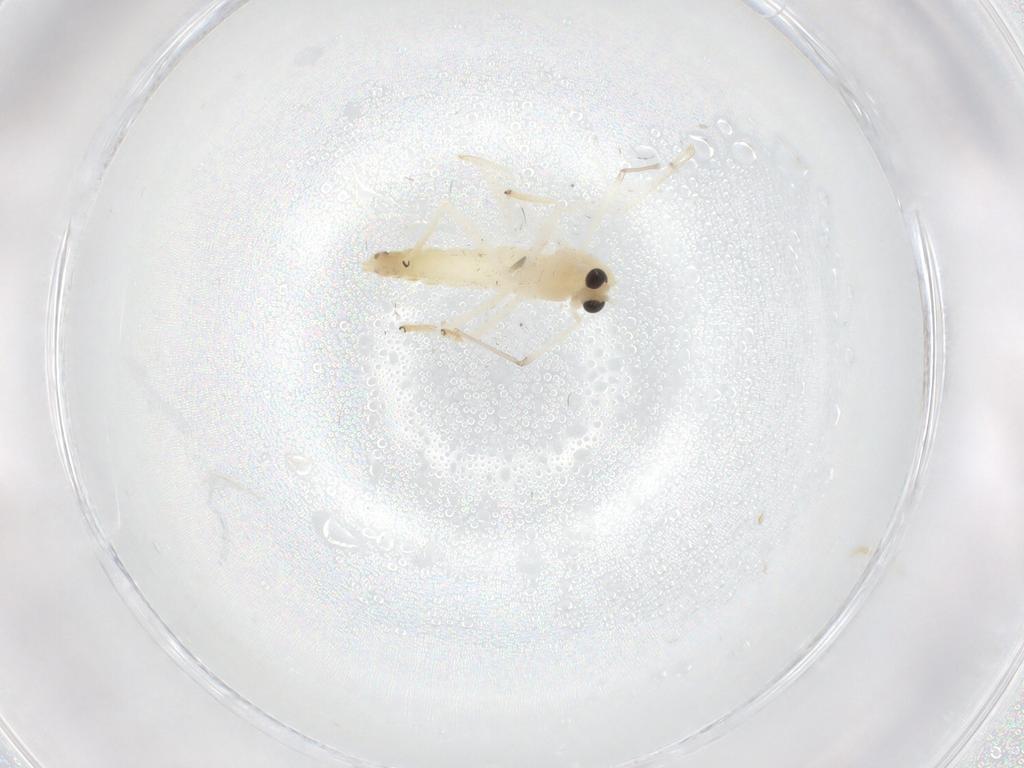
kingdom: Animalia
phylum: Arthropoda
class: Insecta
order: Diptera
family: Chironomidae
